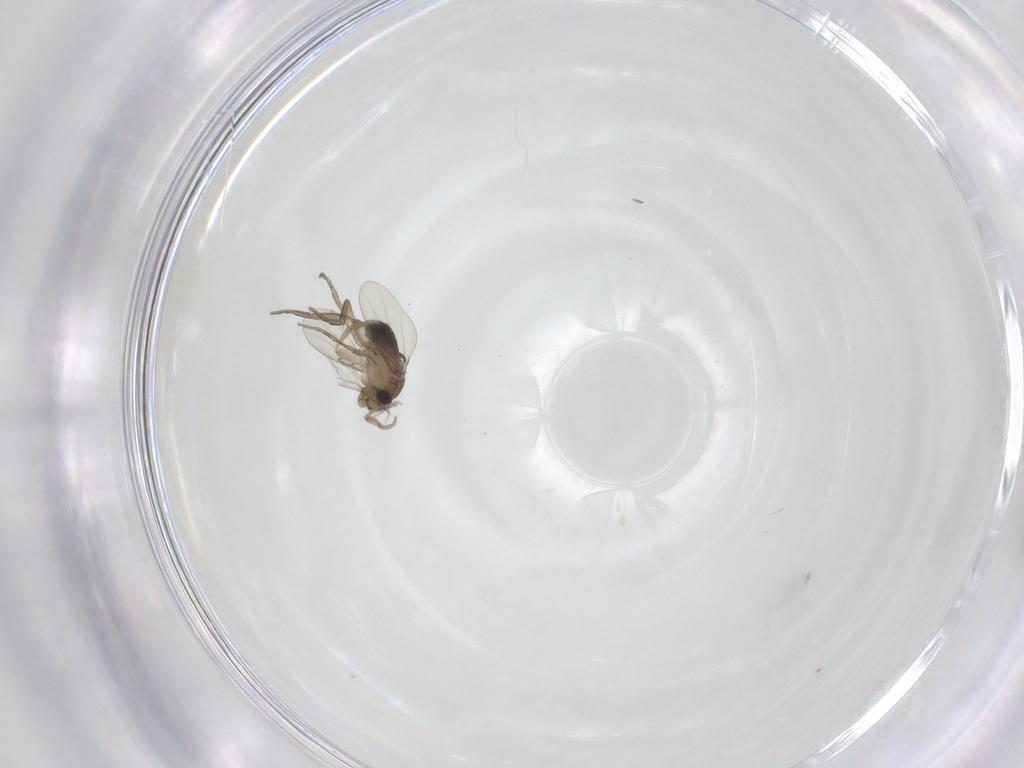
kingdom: Animalia
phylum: Arthropoda
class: Insecta
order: Diptera
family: Phoridae
